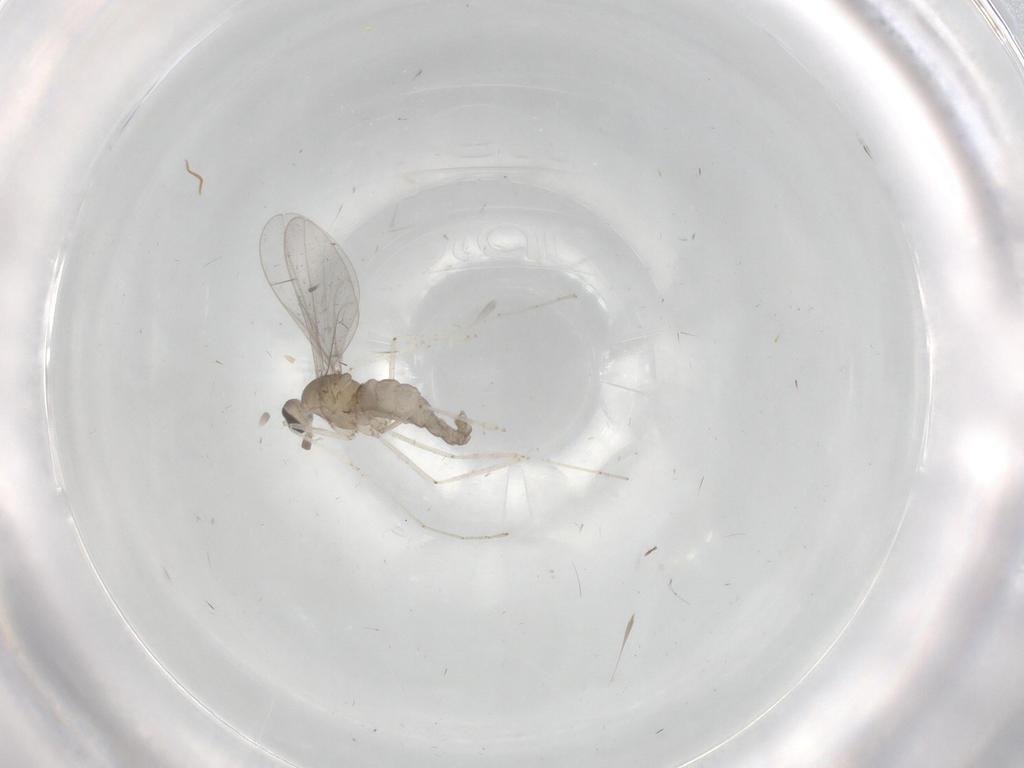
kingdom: Animalia
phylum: Arthropoda
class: Insecta
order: Diptera
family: Cecidomyiidae
